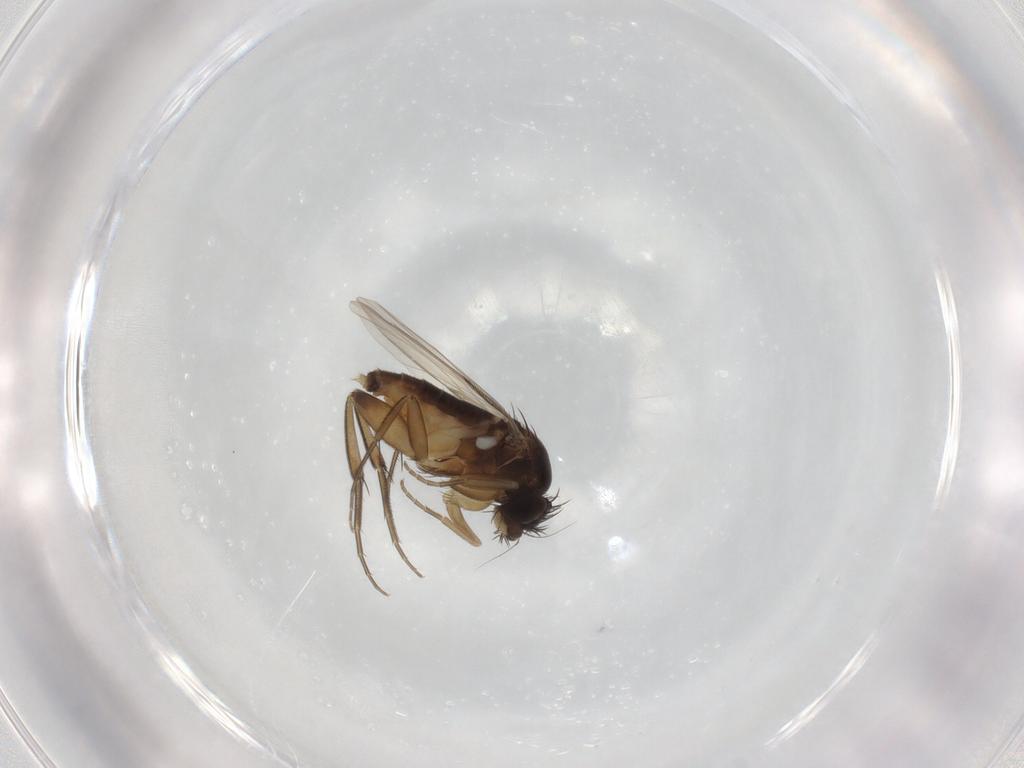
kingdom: Animalia
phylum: Arthropoda
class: Insecta
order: Diptera
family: Phoridae
